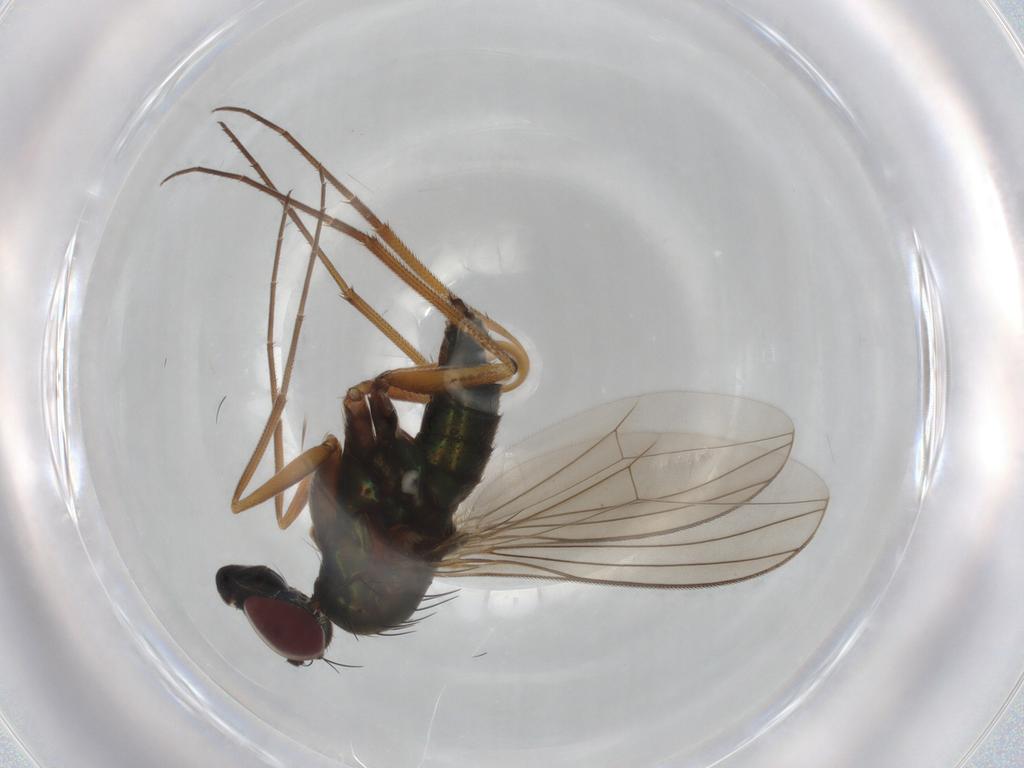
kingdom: Animalia
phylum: Arthropoda
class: Insecta
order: Diptera
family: Dolichopodidae
